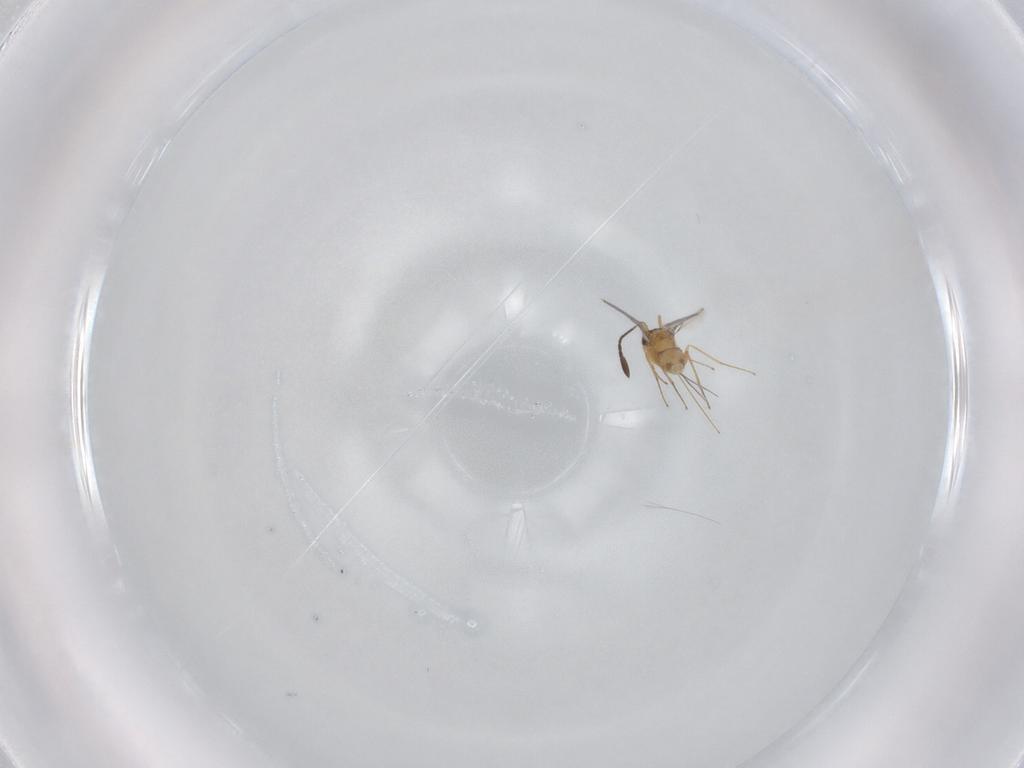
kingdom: Animalia
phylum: Arthropoda
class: Insecta
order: Hymenoptera
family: Mymaridae
